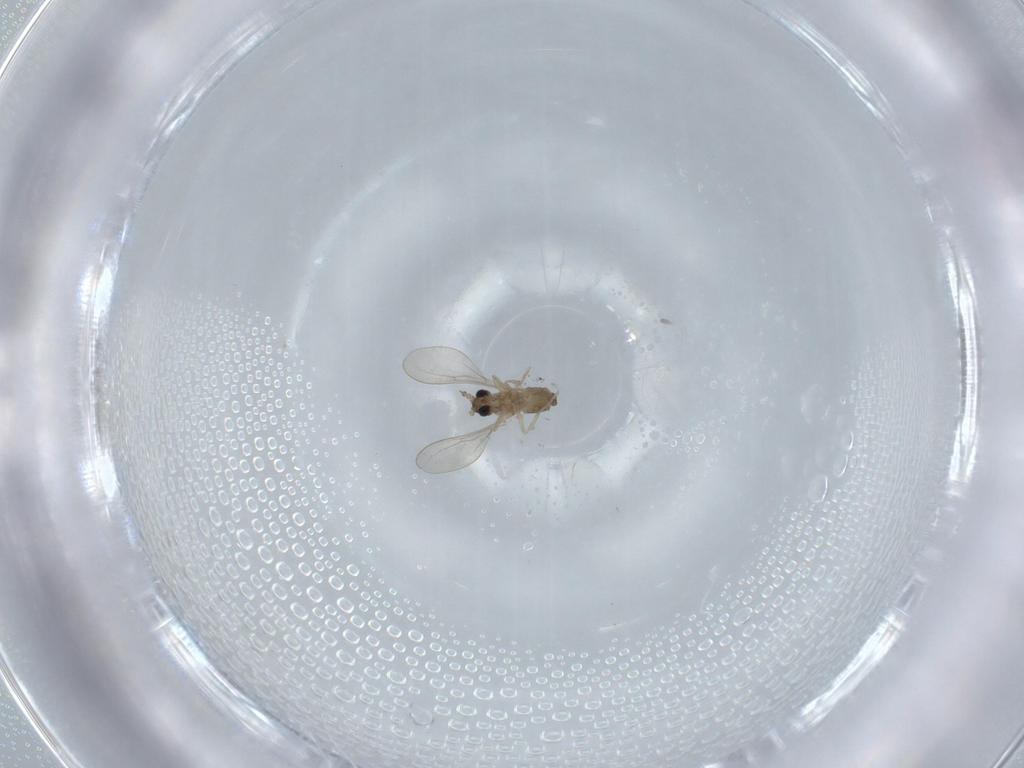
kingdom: Animalia
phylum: Arthropoda
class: Insecta
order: Diptera
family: Cecidomyiidae
